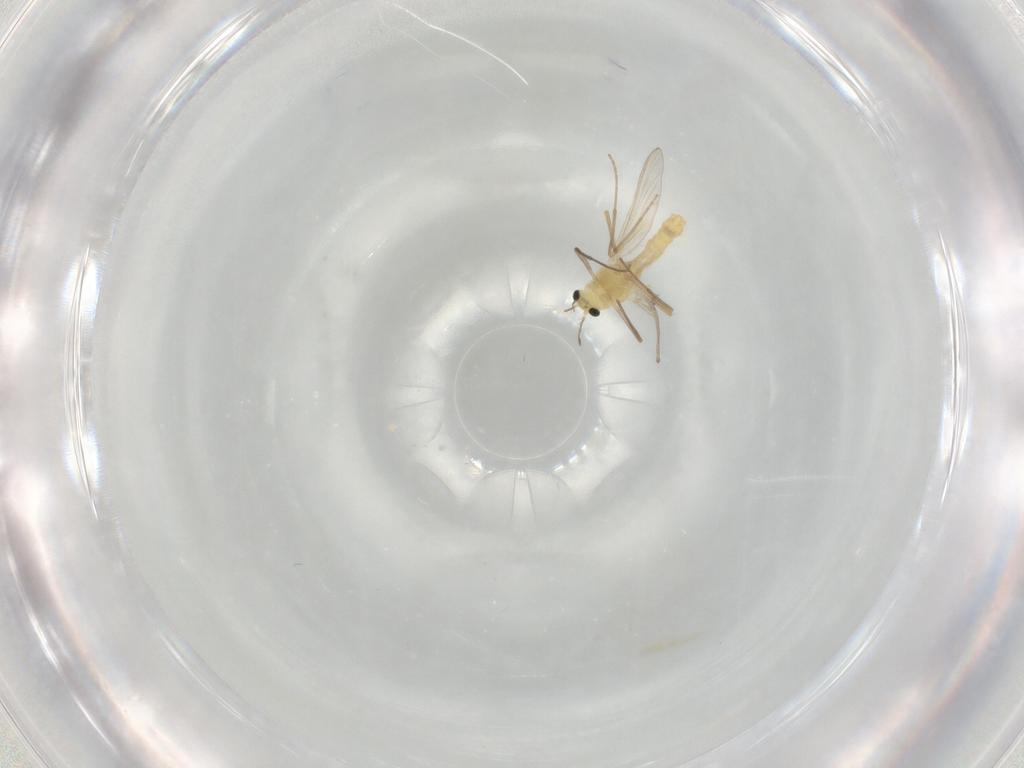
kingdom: Animalia
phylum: Arthropoda
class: Insecta
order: Diptera
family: Chironomidae
